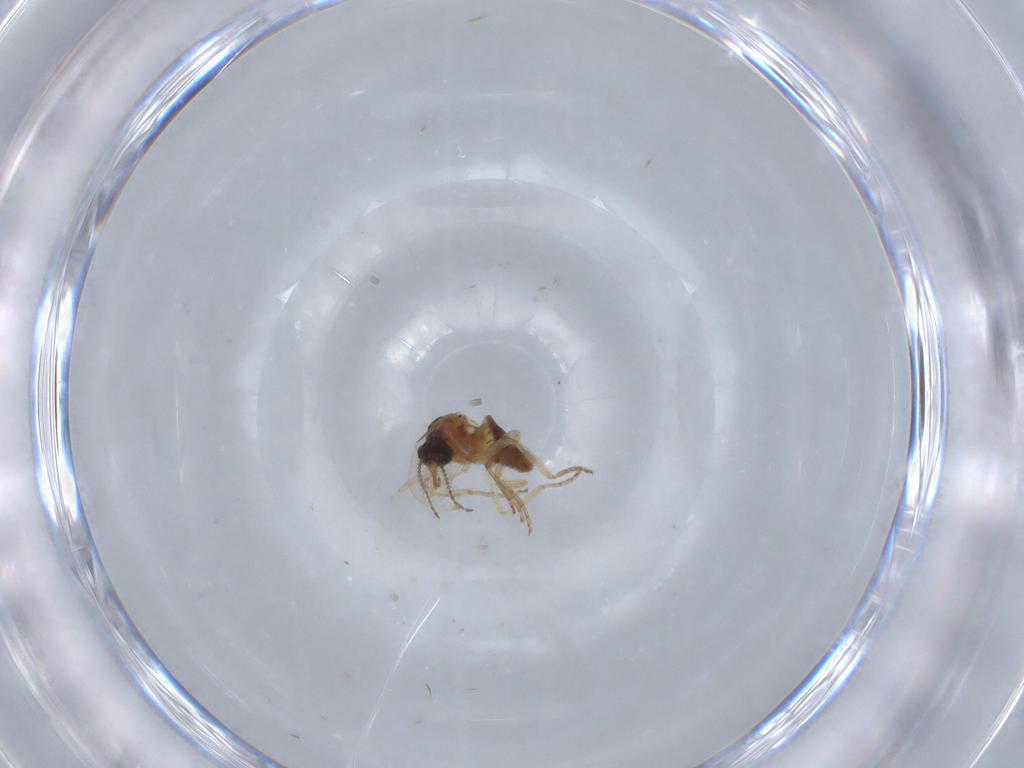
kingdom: Animalia
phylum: Arthropoda
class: Insecta
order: Diptera
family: Ceratopogonidae
